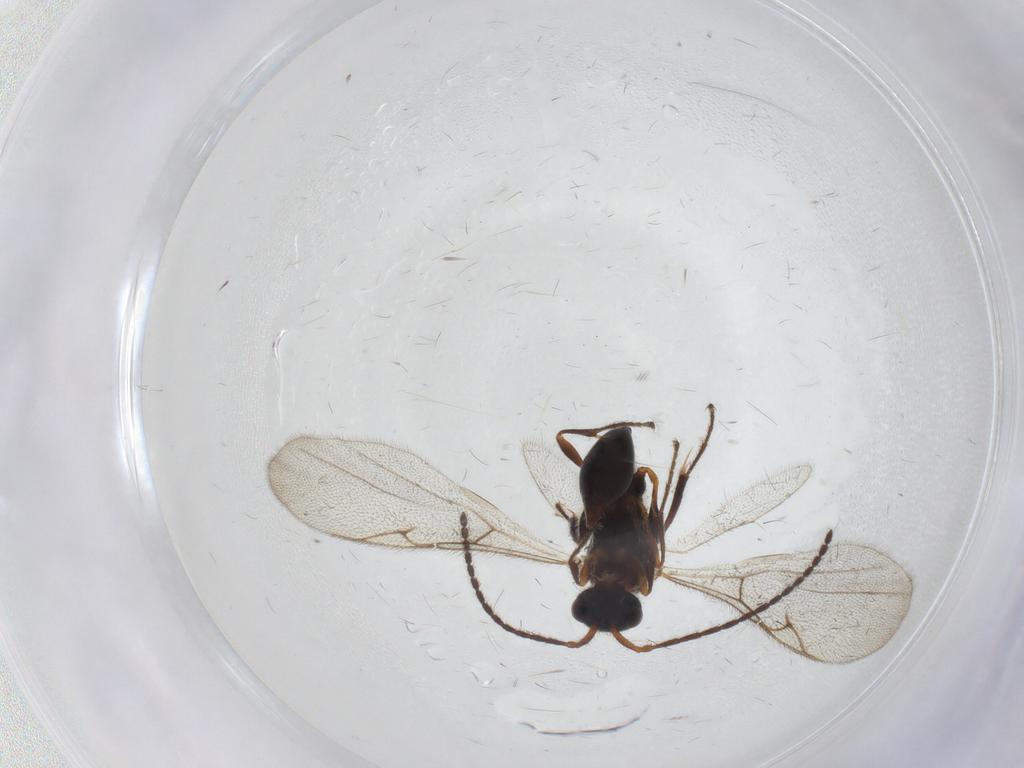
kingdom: Animalia
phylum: Arthropoda
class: Insecta
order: Hymenoptera
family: Diapriidae
